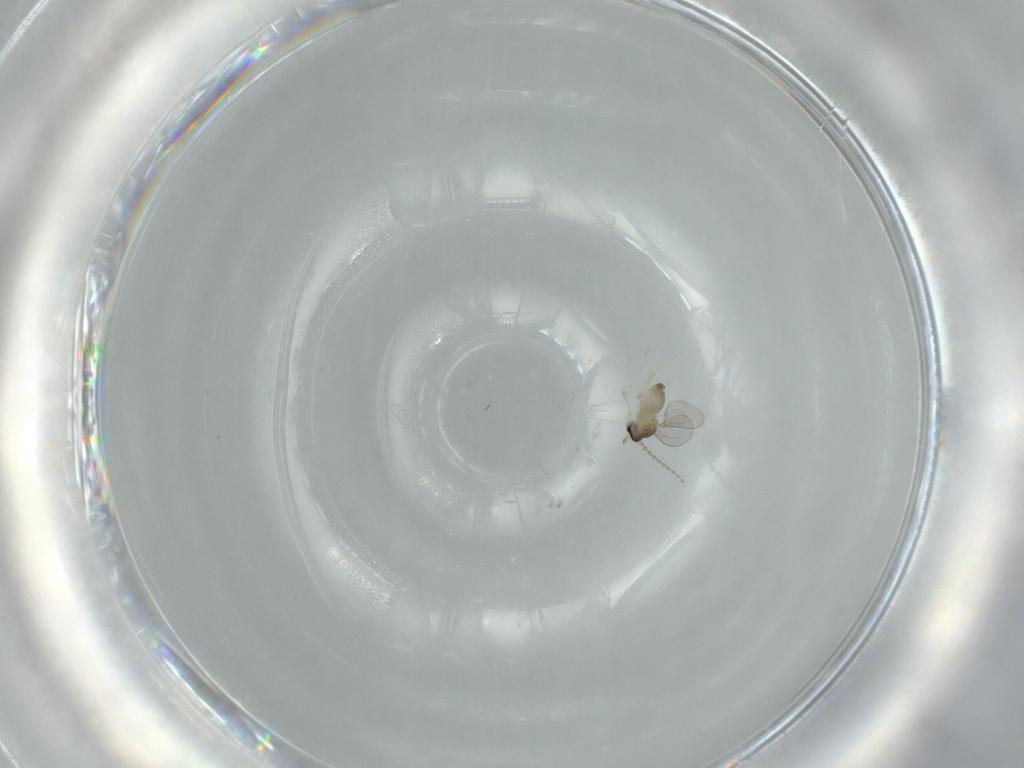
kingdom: Animalia
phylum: Arthropoda
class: Insecta
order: Diptera
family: Cecidomyiidae
